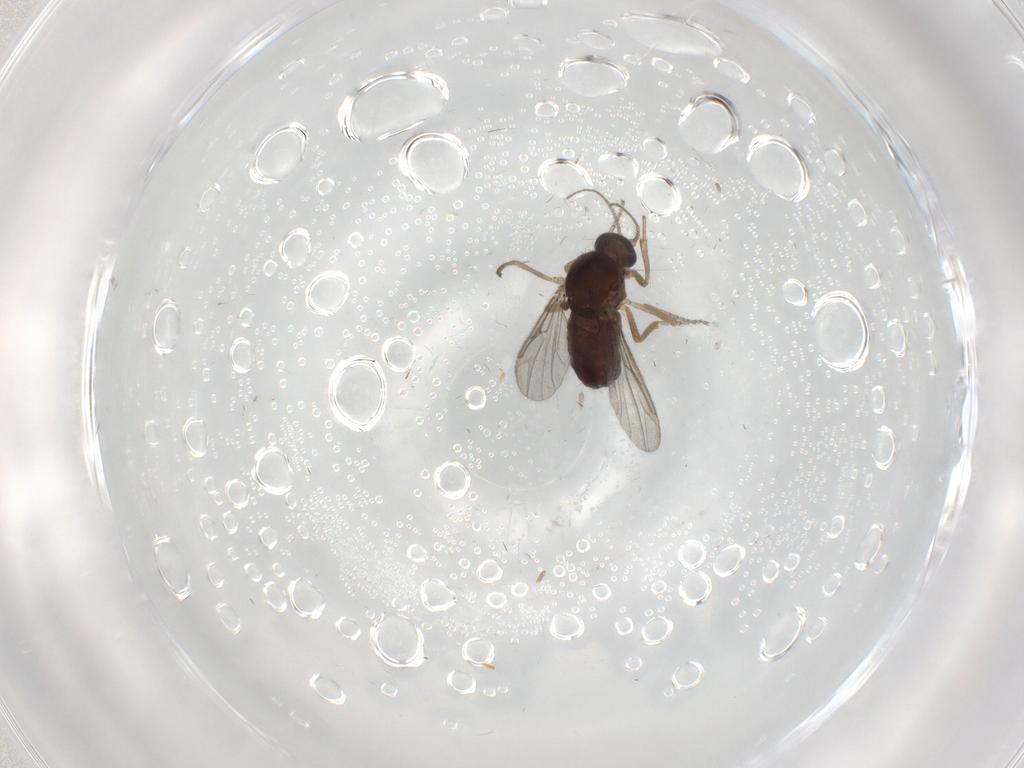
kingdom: Animalia
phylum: Arthropoda
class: Insecta
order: Diptera
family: Ceratopogonidae
